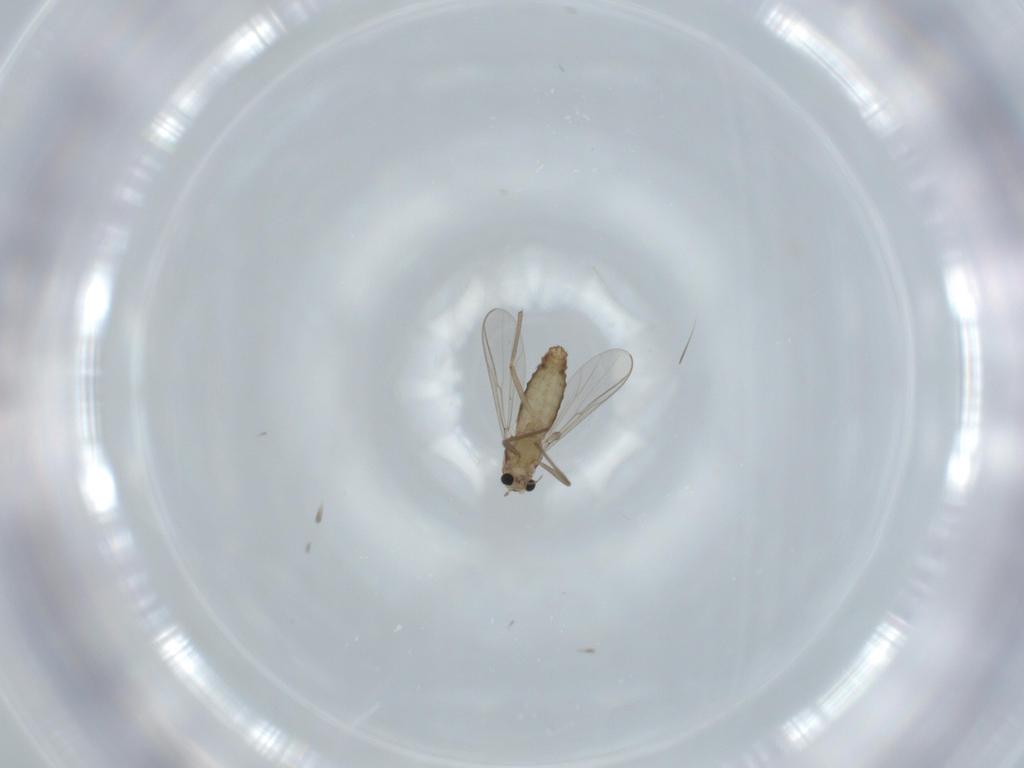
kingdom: Animalia
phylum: Arthropoda
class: Insecta
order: Diptera
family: Chironomidae
